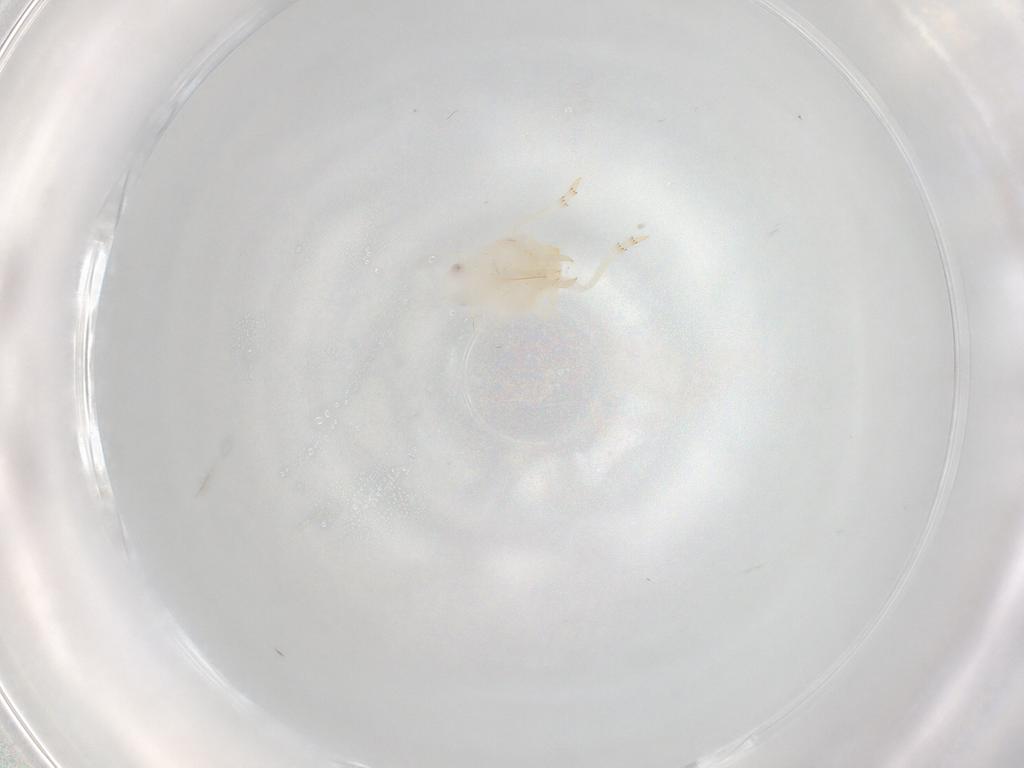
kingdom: Animalia
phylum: Arthropoda
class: Insecta
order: Hemiptera
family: Flatidae
